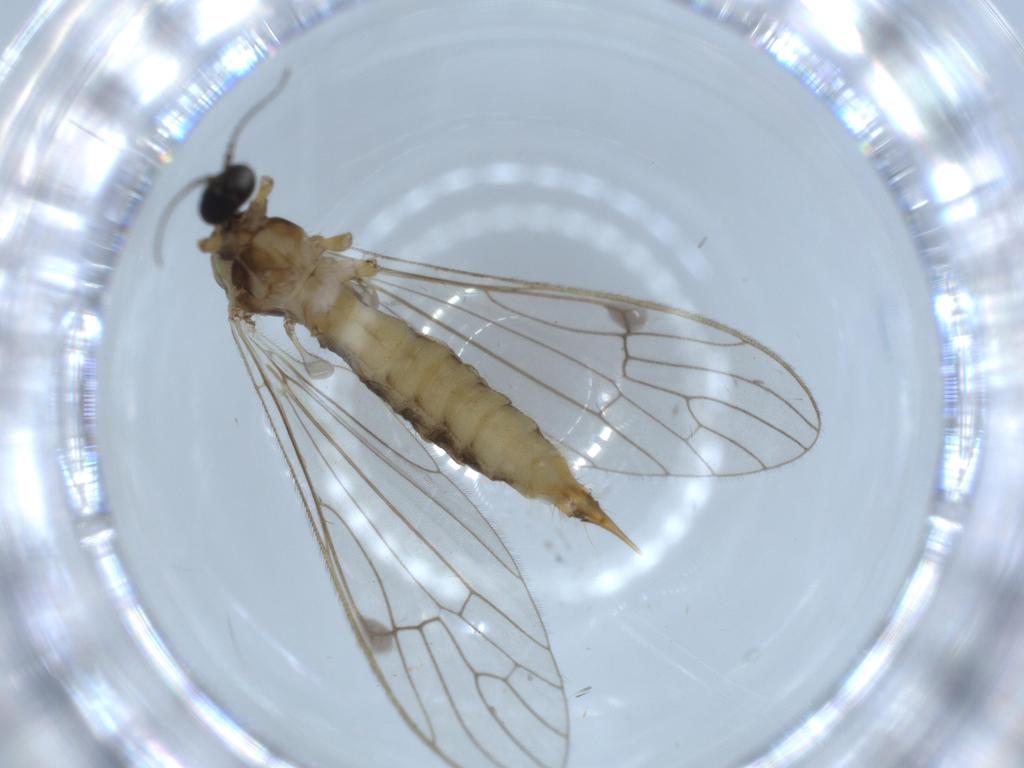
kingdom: Animalia
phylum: Arthropoda
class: Insecta
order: Diptera
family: Limoniidae
